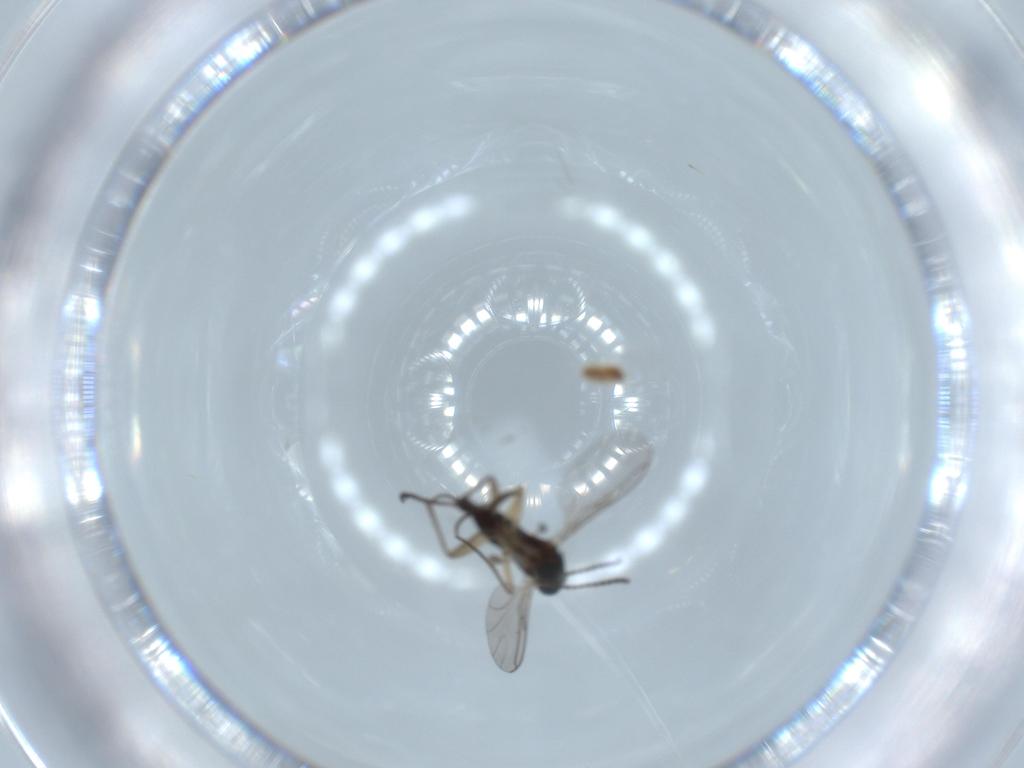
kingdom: Animalia
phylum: Arthropoda
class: Insecta
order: Diptera
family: Sciaridae
